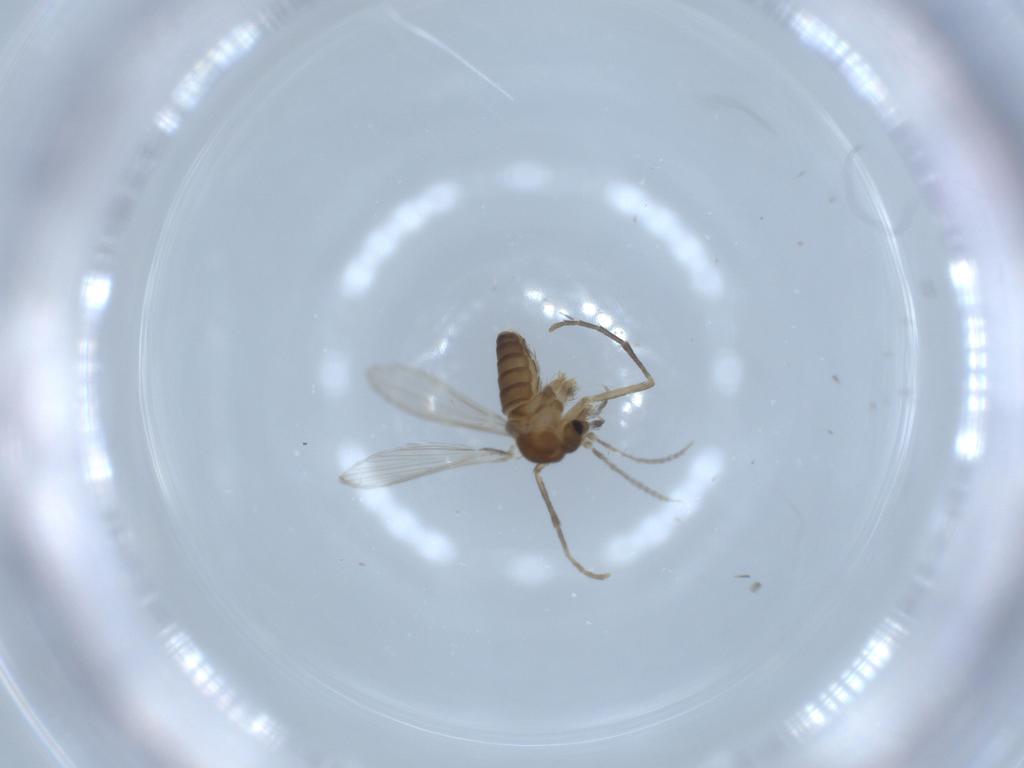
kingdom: Animalia
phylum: Arthropoda
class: Insecta
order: Diptera
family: Psychodidae
